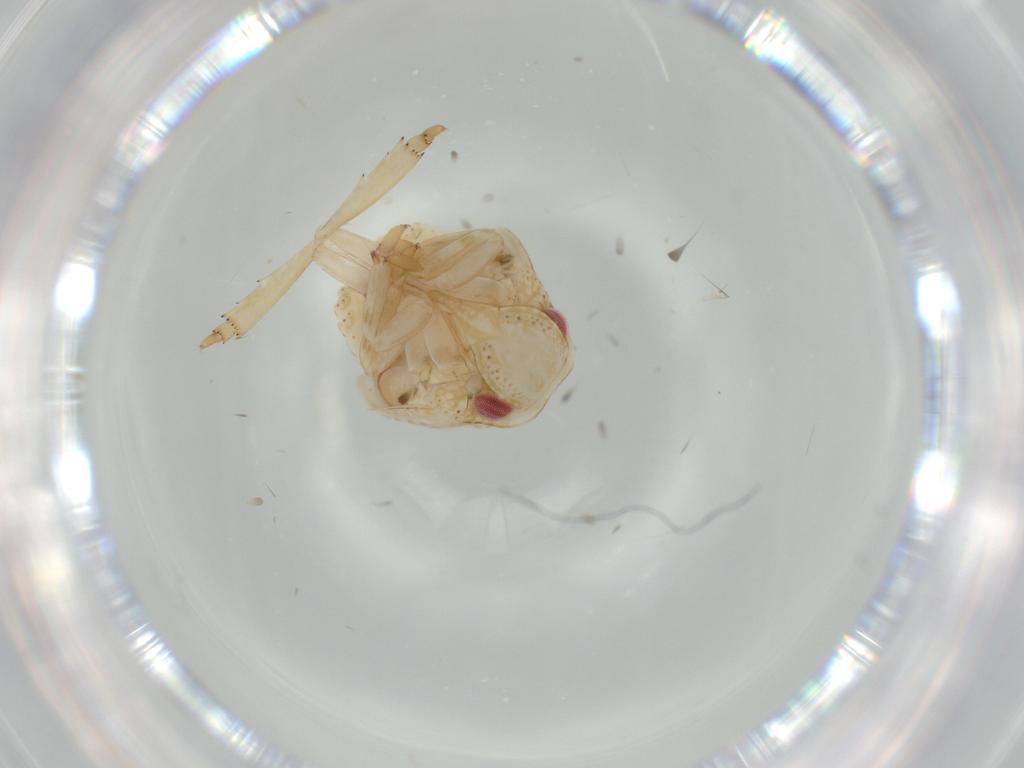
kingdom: Animalia
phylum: Arthropoda
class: Insecta
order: Hemiptera
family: Acanaloniidae
